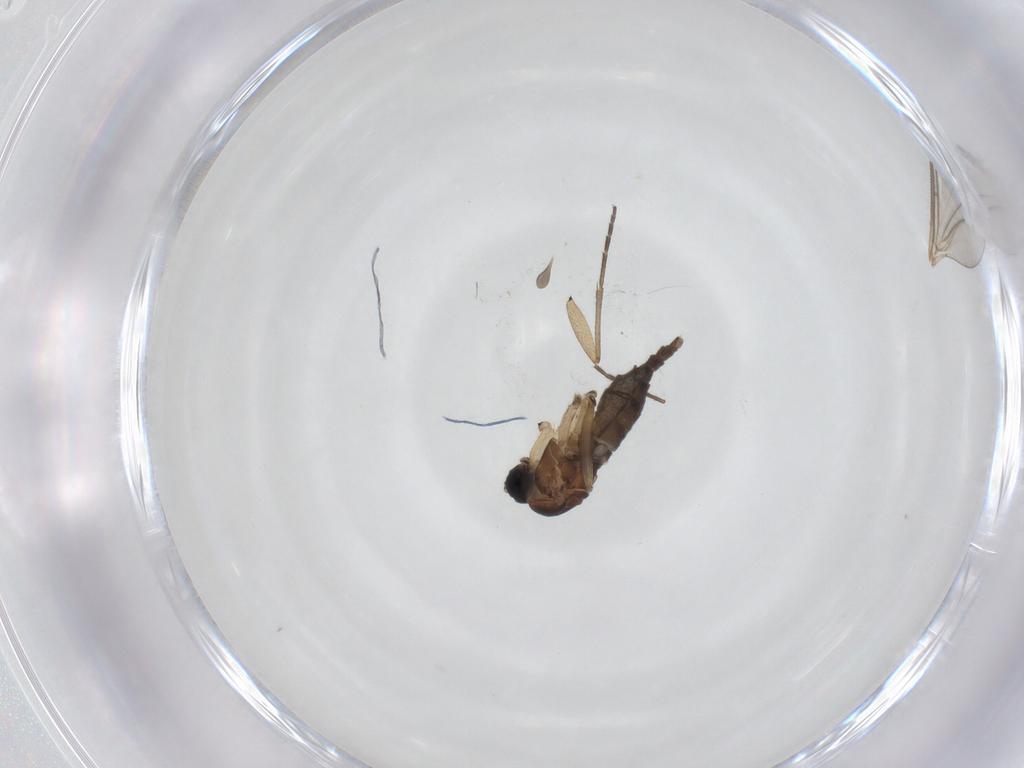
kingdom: Animalia
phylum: Arthropoda
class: Insecta
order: Diptera
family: Sciaridae
